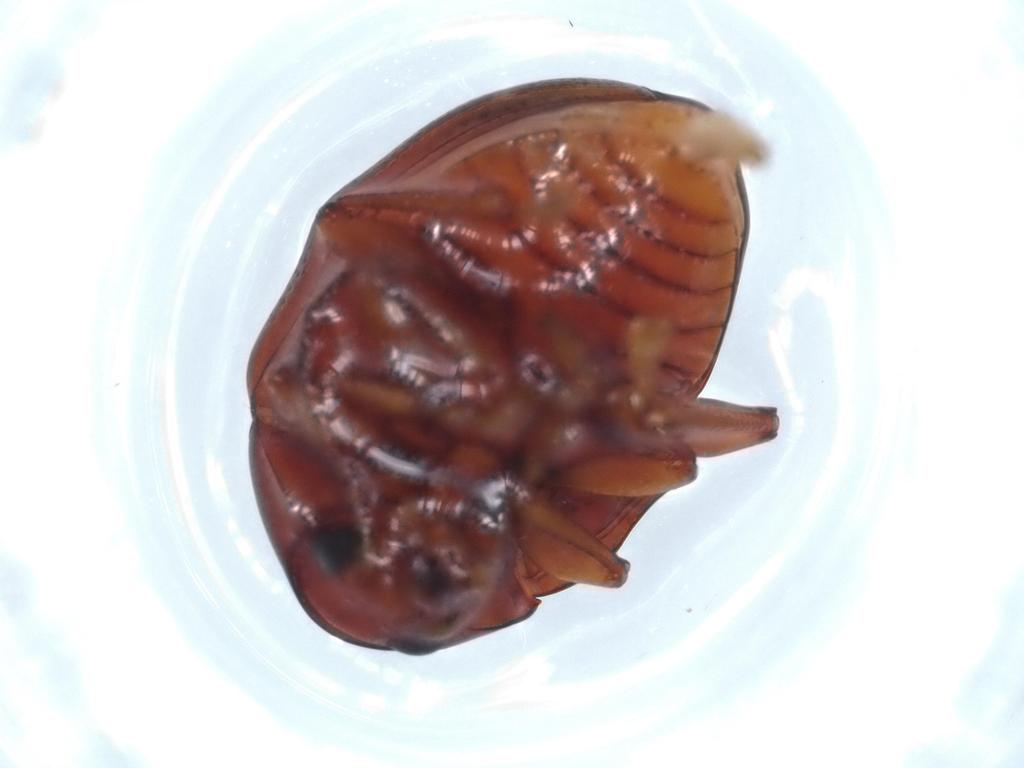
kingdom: Animalia
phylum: Arthropoda
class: Insecta
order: Coleoptera
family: Chrysomelidae
